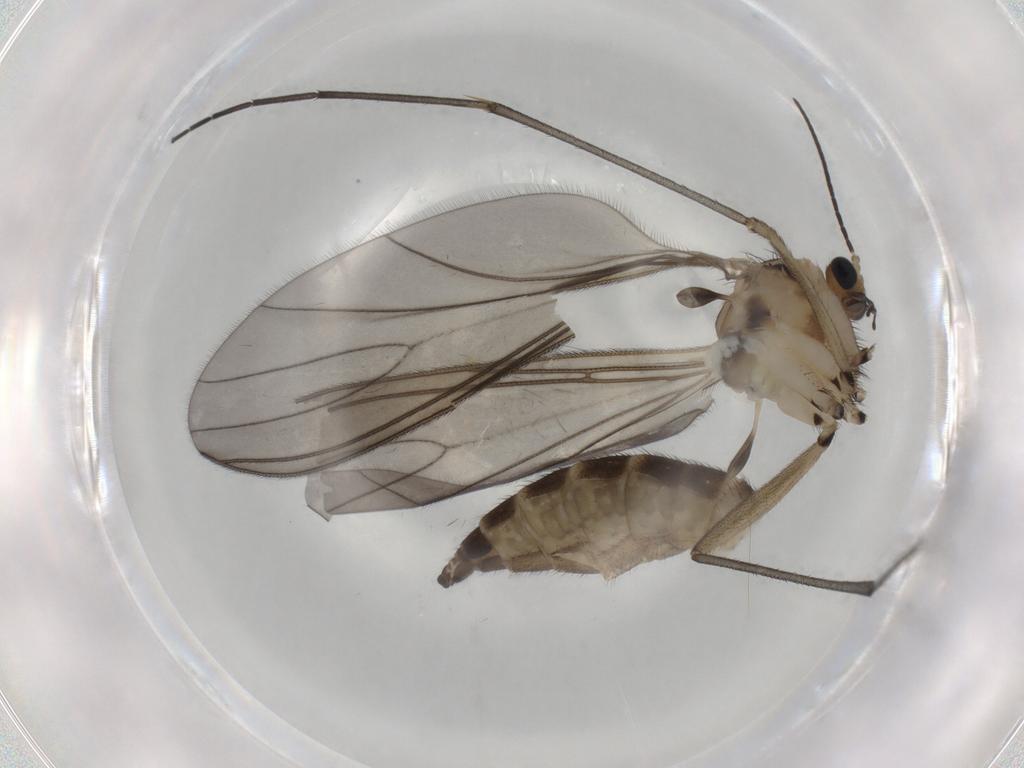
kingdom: Animalia
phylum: Arthropoda
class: Insecta
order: Diptera
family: Sciaridae
